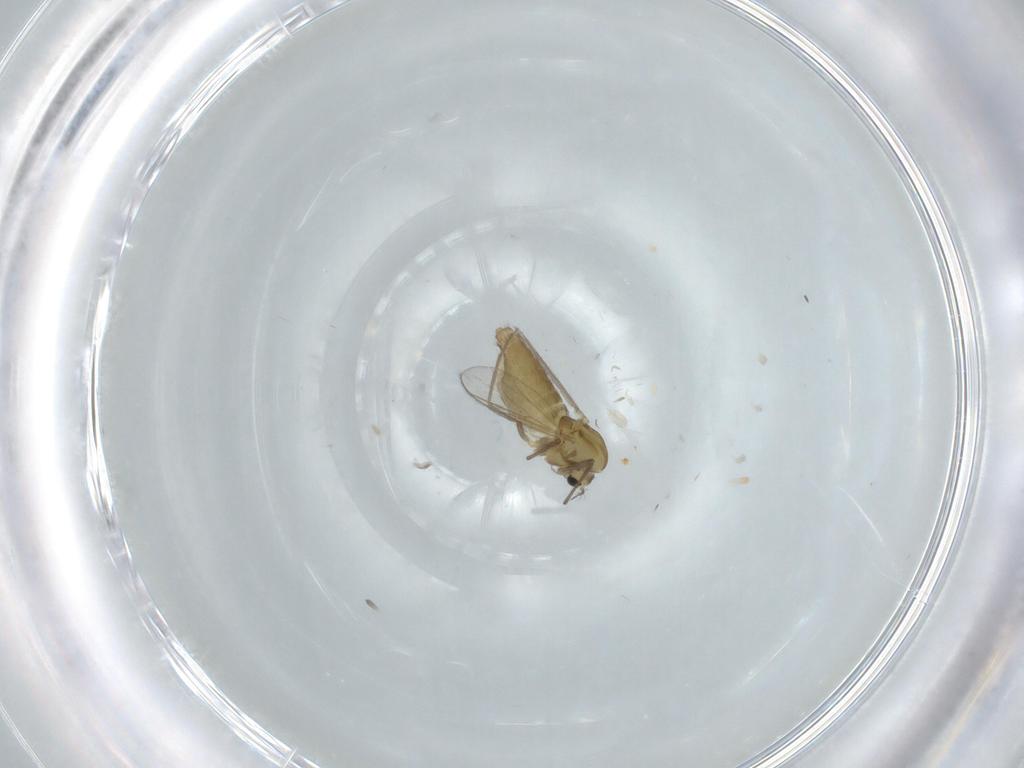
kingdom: Animalia
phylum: Arthropoda
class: Insecta
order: Diptera
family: Chironomidae
